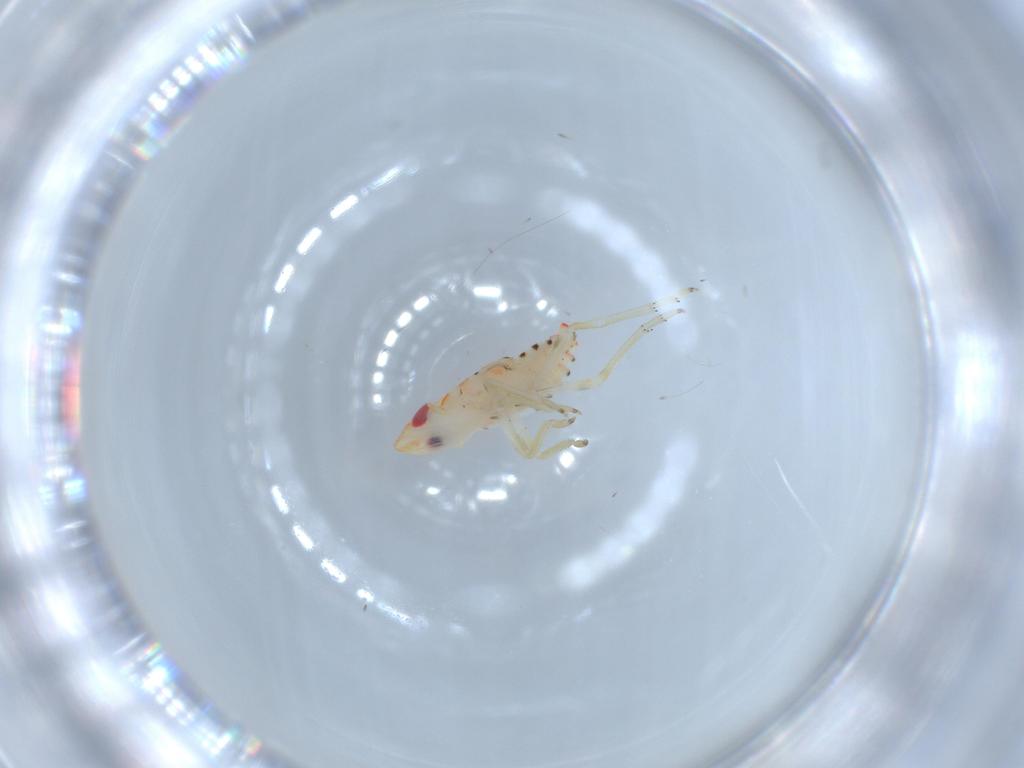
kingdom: Animalia
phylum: Arthropoda
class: Insecta
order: Hemiptera
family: Tropiduchidae
